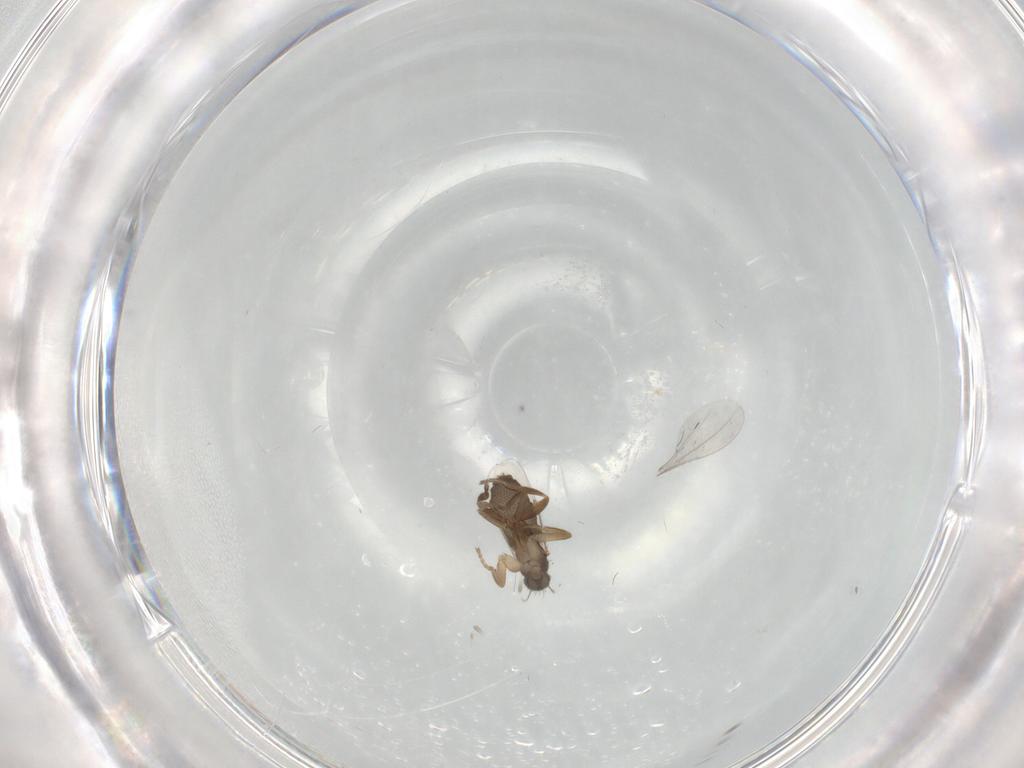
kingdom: Animalia
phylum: Arthropoda
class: Insecta
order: Diptera
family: Phoridae
